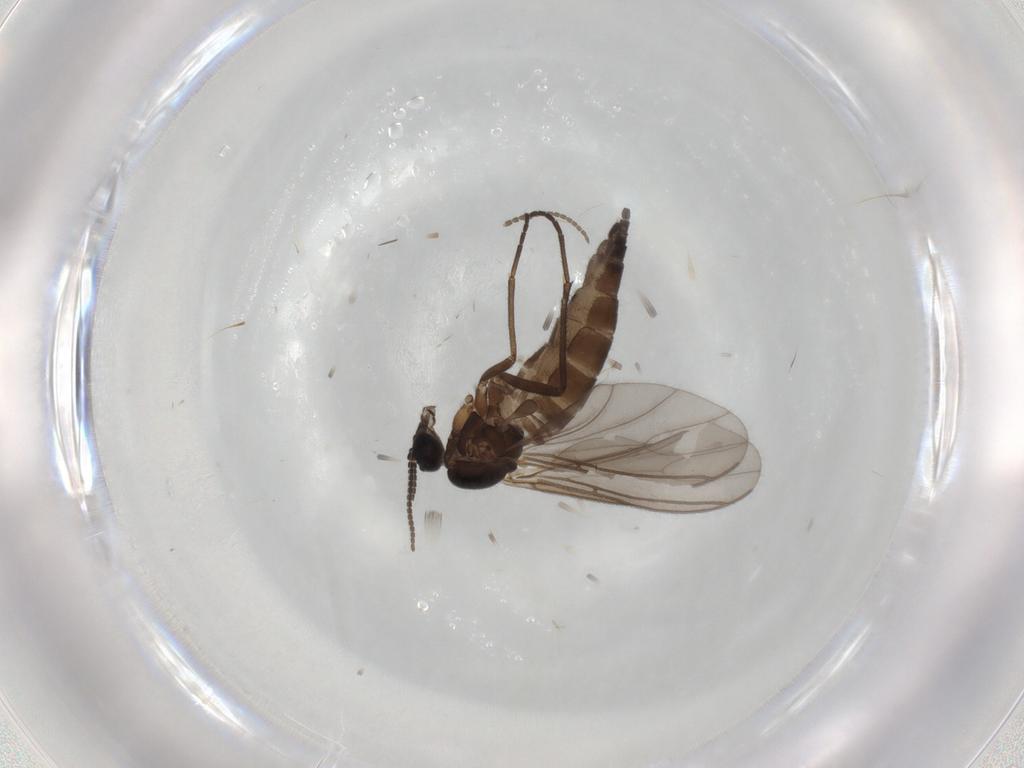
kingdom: Animalia
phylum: Arthropoda
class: Insecta
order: Diptera
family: Sciaridae
